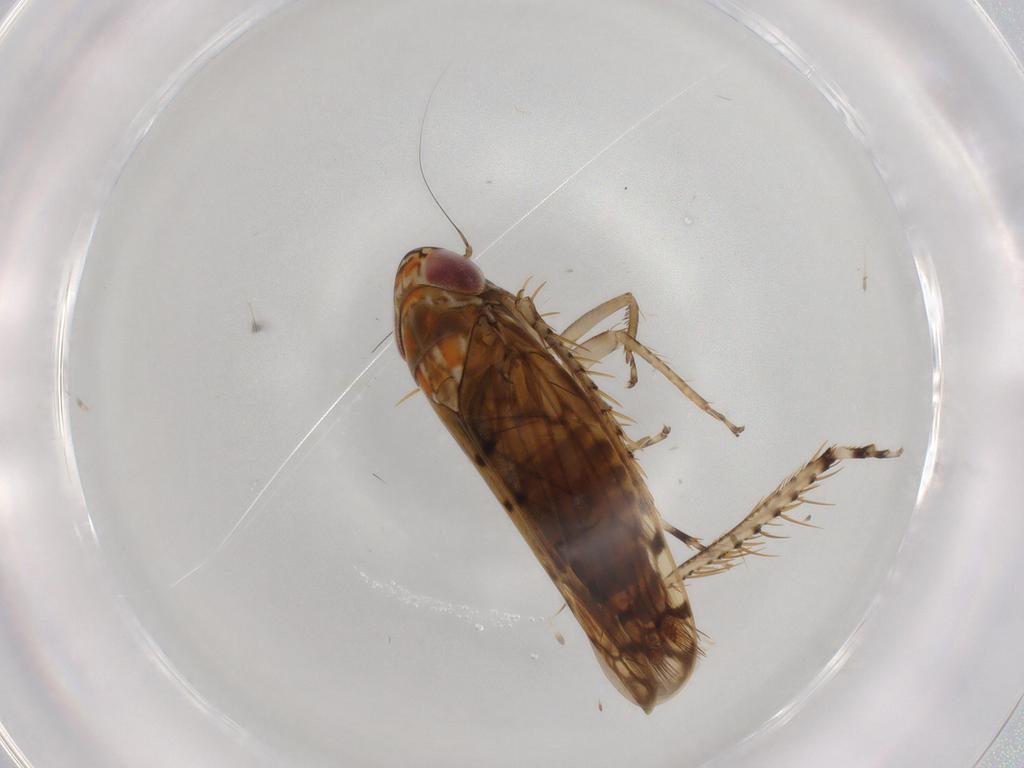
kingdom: Animalia
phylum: Arthropoda
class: Insecta
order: Hemiptera
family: Cicadellidae
